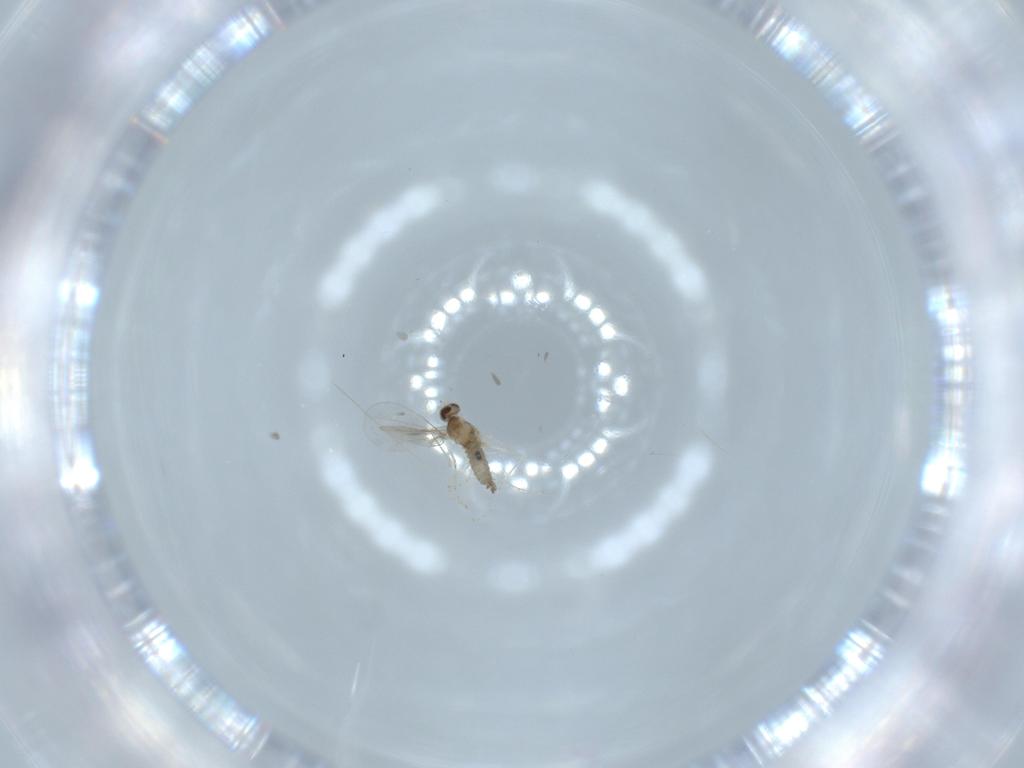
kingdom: Animalia
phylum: Arthropoda
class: Insecta
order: Diptera
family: Cecidomyiidae
